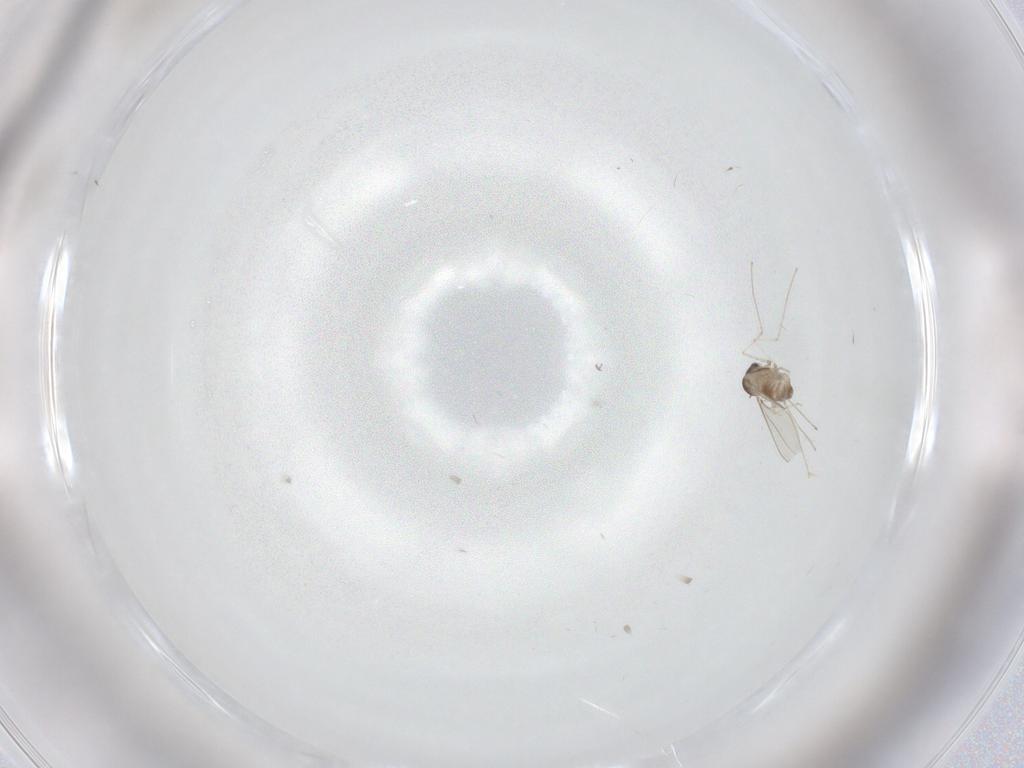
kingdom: Animalia
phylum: Arthropoda
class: Insecta
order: Diptera
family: Cecidomyiidae
